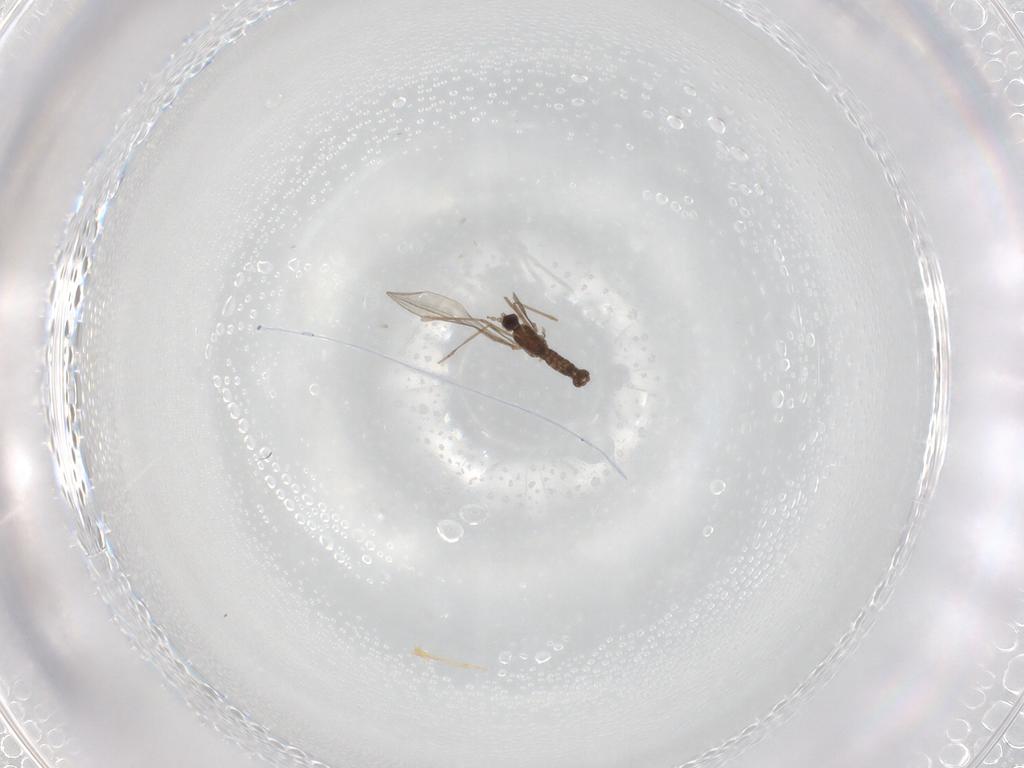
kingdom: Animalia
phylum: Arthropoda
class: Insecta
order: Diptera
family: Cecidomyiidae
